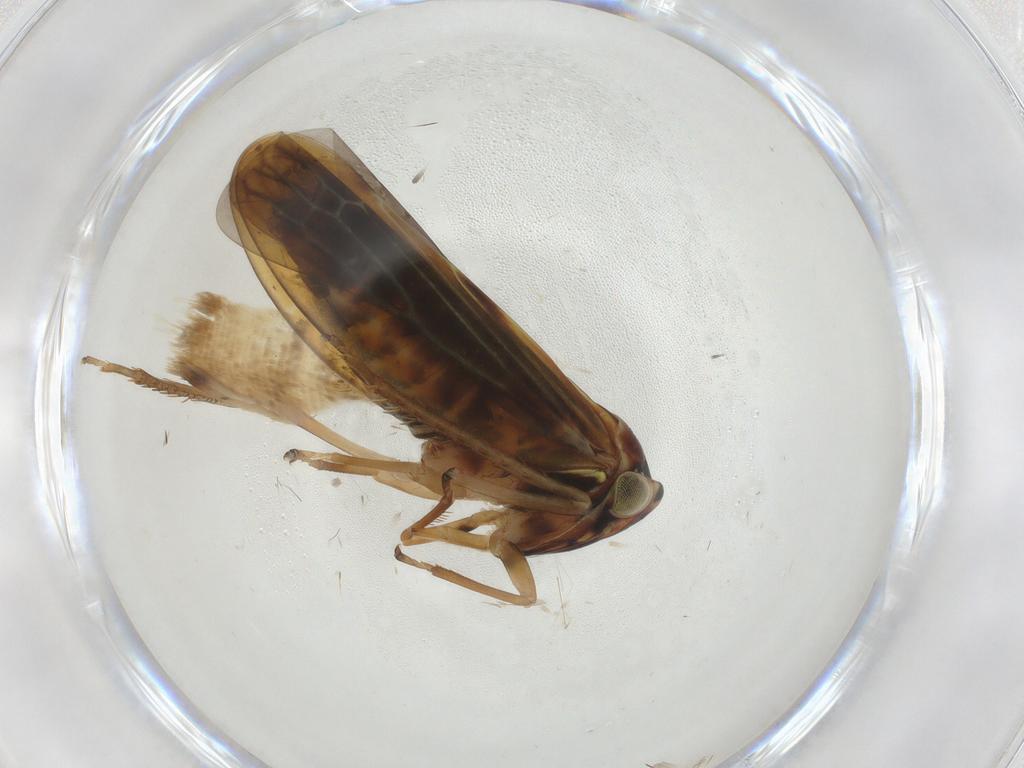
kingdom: Animalia
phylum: Arthropoda
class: Insecta
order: Hemiptera
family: Cicadellidae
